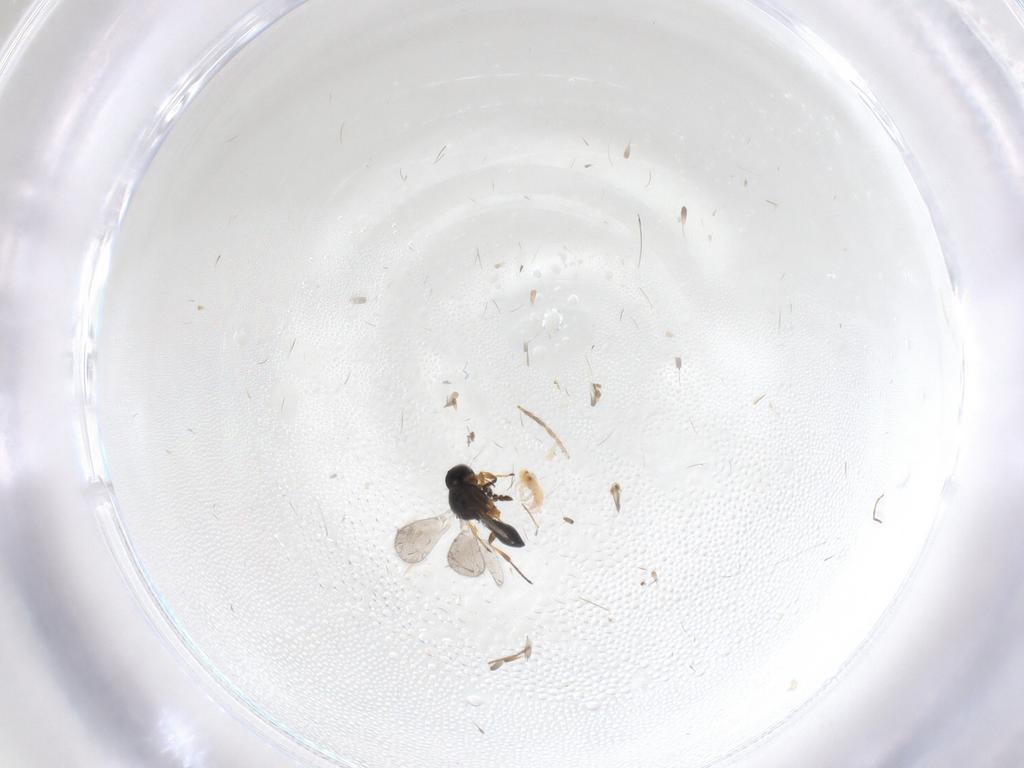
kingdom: Animalia
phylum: Arthropoda
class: Insecta
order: Hymenoptera
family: Platygastridae
